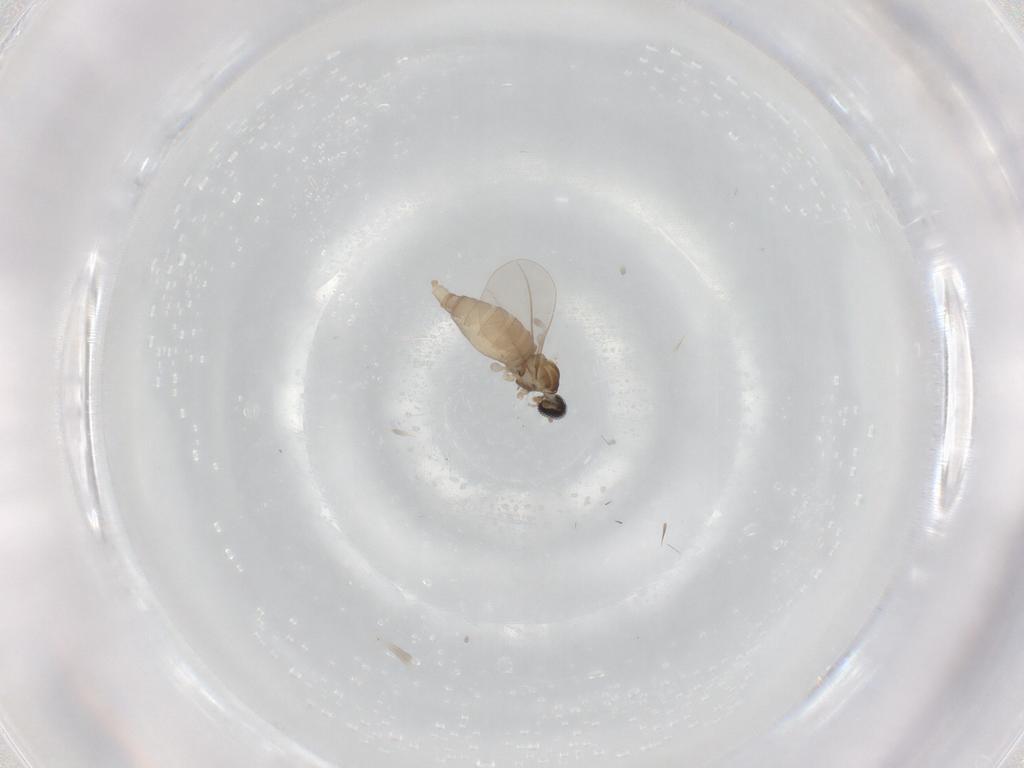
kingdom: Animalia
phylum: Arthropoda
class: Insecta
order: Diptera
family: Cecidomyiidae
